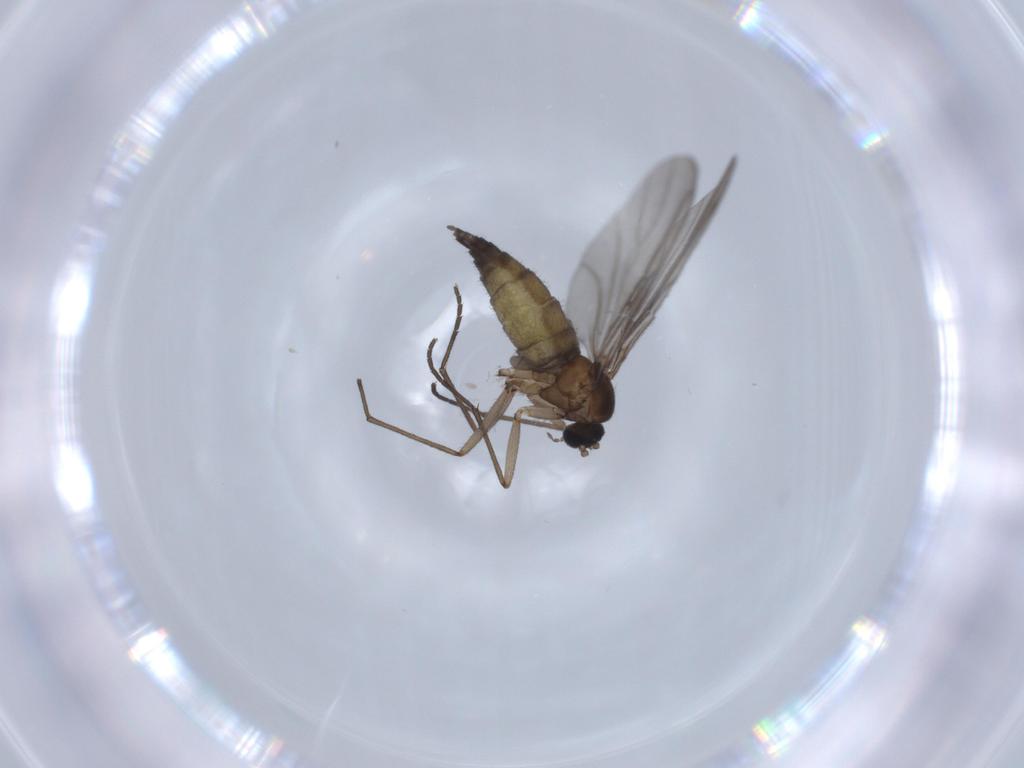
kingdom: Animalia
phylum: Arthropoda
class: Insecta
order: Diptera
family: Sciaridae
